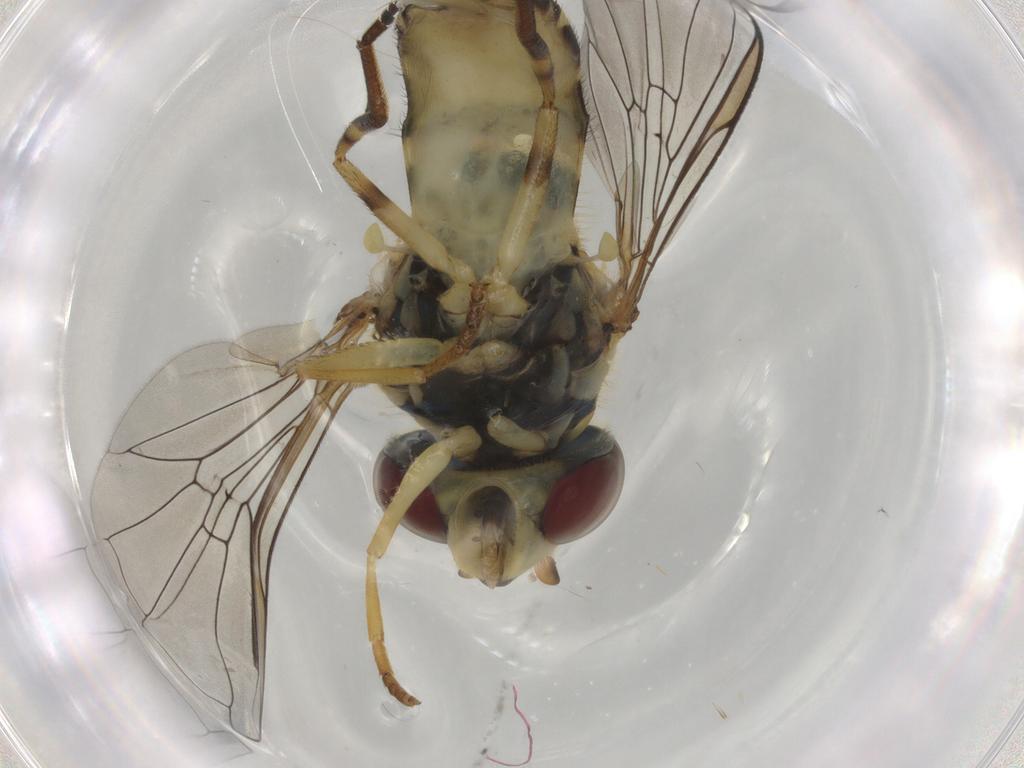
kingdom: Animalia
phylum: Arthropoda
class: Insecta
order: Diptera
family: Syrphidae
